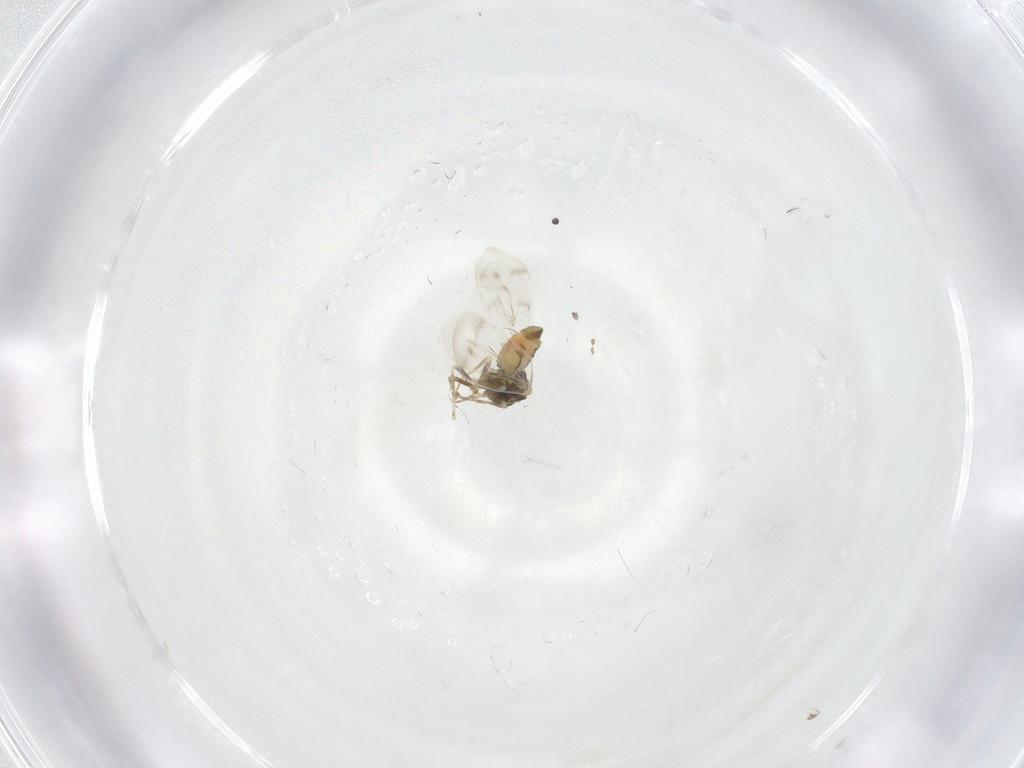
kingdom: Animalia
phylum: Arthropoda
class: Insecta
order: Hemiptera
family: Aleyrodidae
